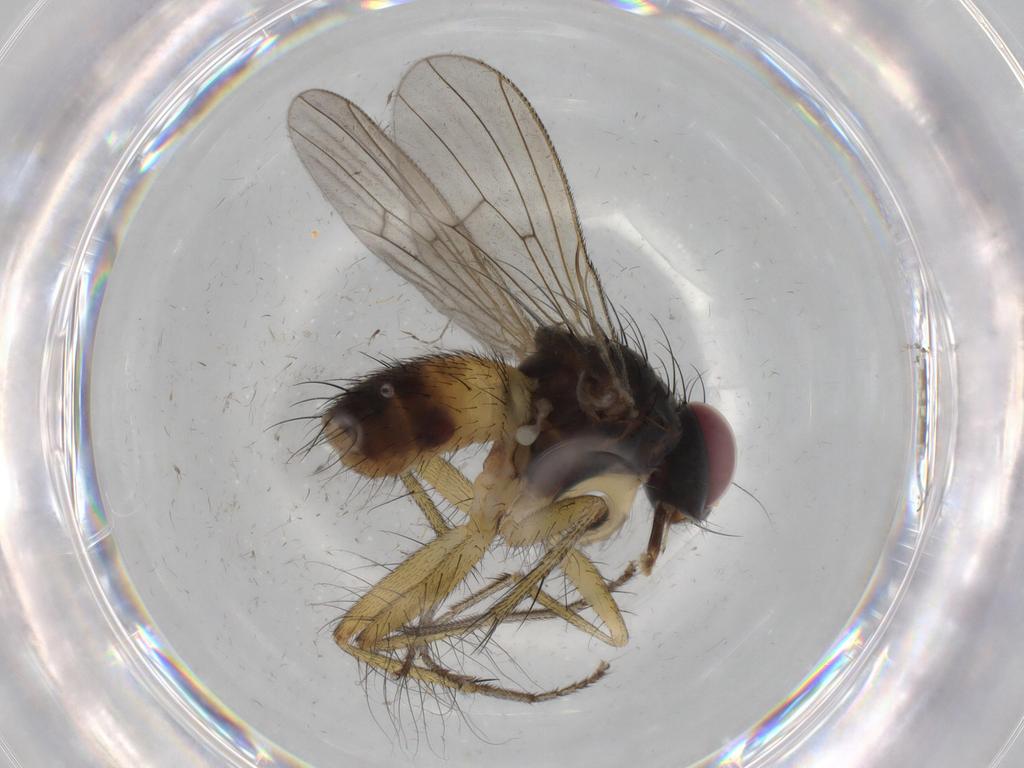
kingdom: Animalia
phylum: Arthropoda
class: Insecta
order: Diptera
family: Muscidae
